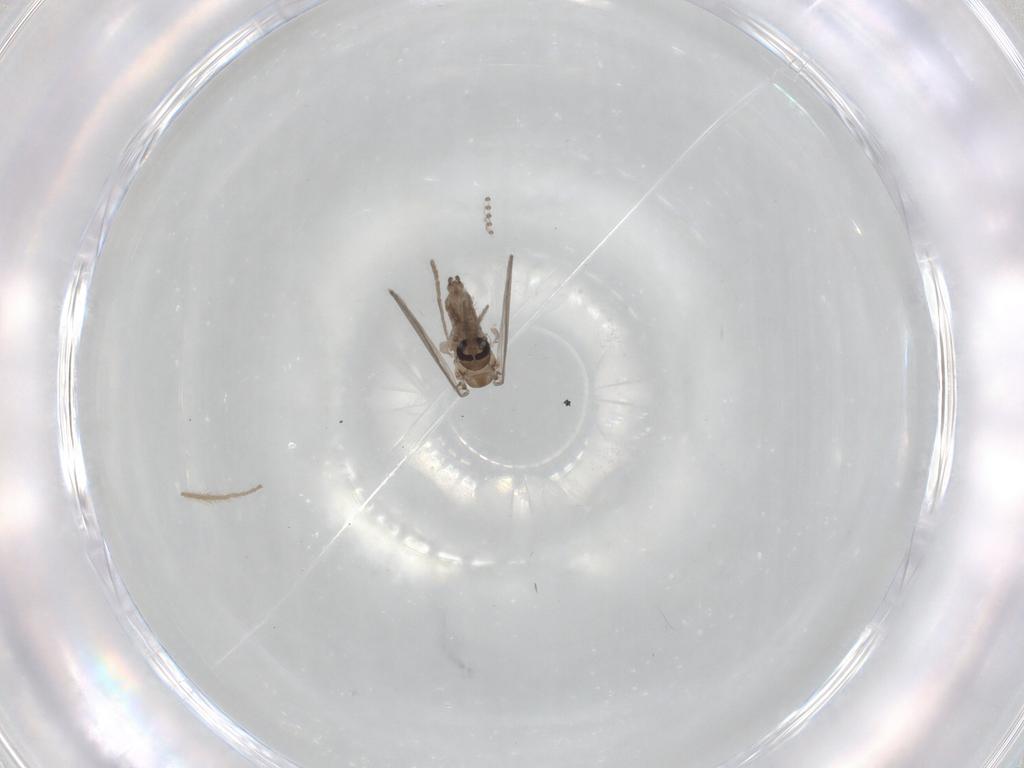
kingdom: Animalia
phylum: Arthropoda
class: Insecta
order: Diptera
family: Psychodidae
